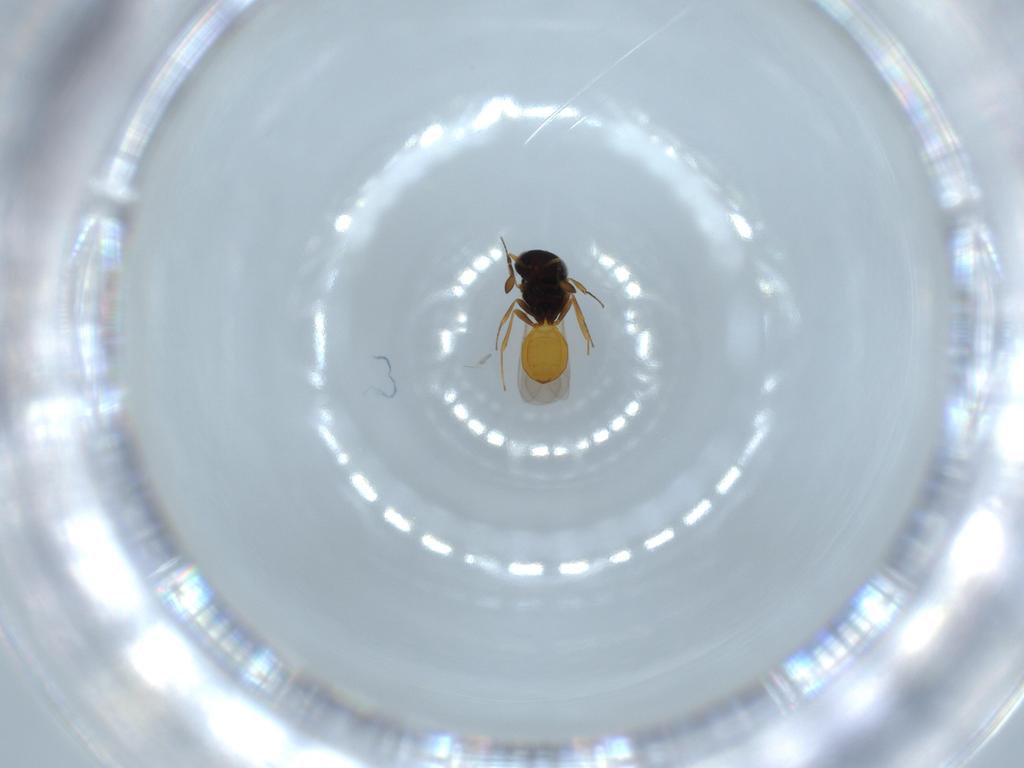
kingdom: Animalia
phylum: Arthropoda
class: Insecta
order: Hymenoptera
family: Scelionidae
